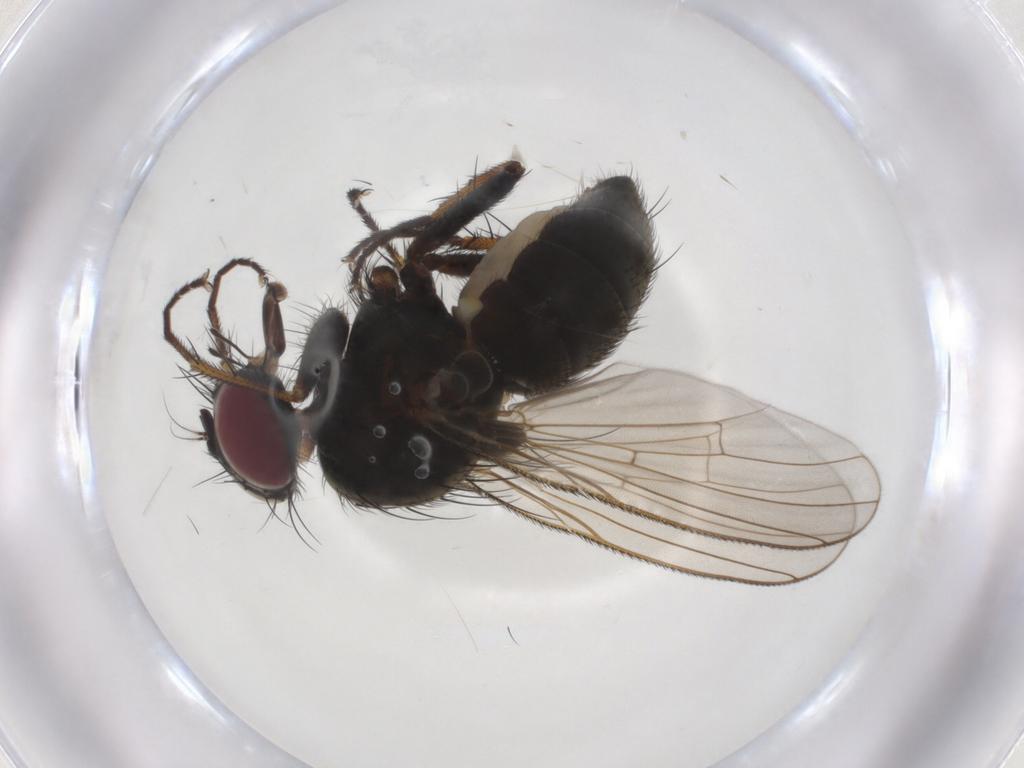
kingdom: Animalia
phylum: Arthropoda
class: Insecta
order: Diptera
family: Muscidae
